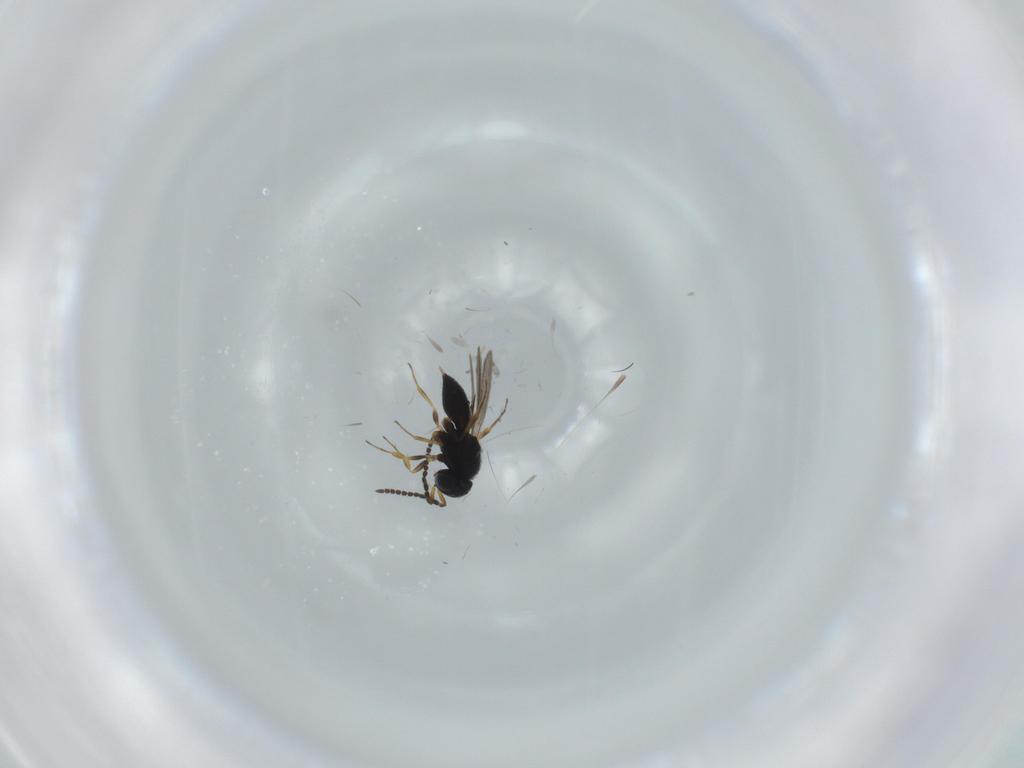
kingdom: Animalia
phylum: Arthropoda
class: Insecta
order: Hymenoptera
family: Scelionidae
